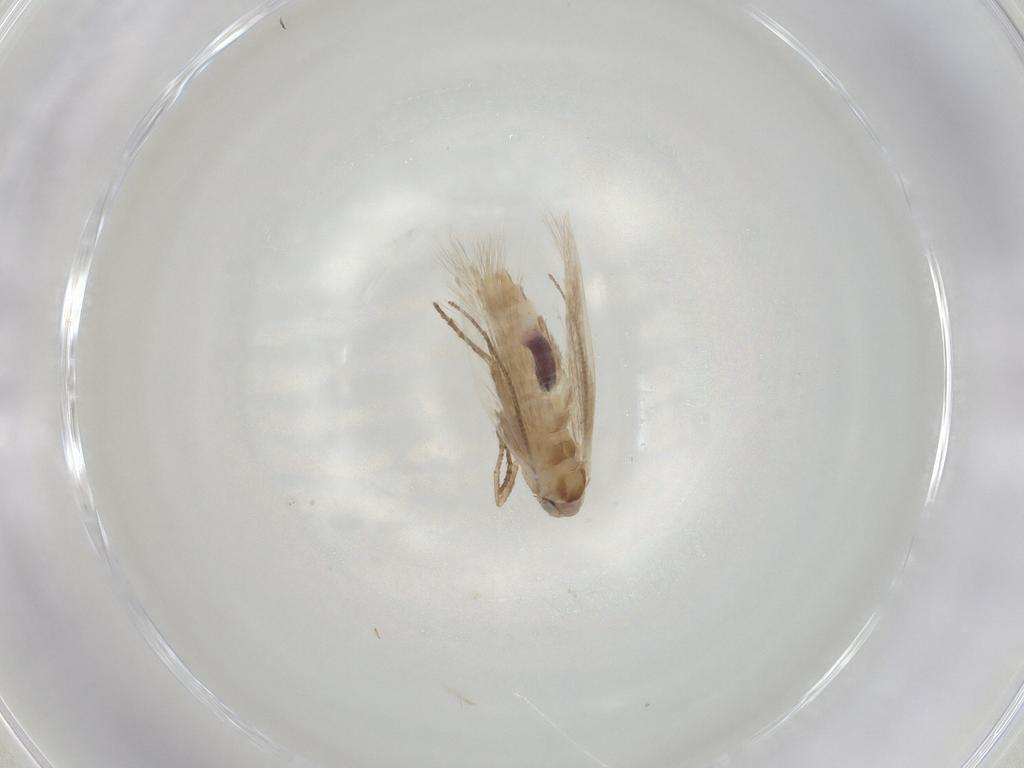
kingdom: Animalia
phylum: Arthropoda
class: Insecta
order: Lepidoptera
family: Bucculatricidae
